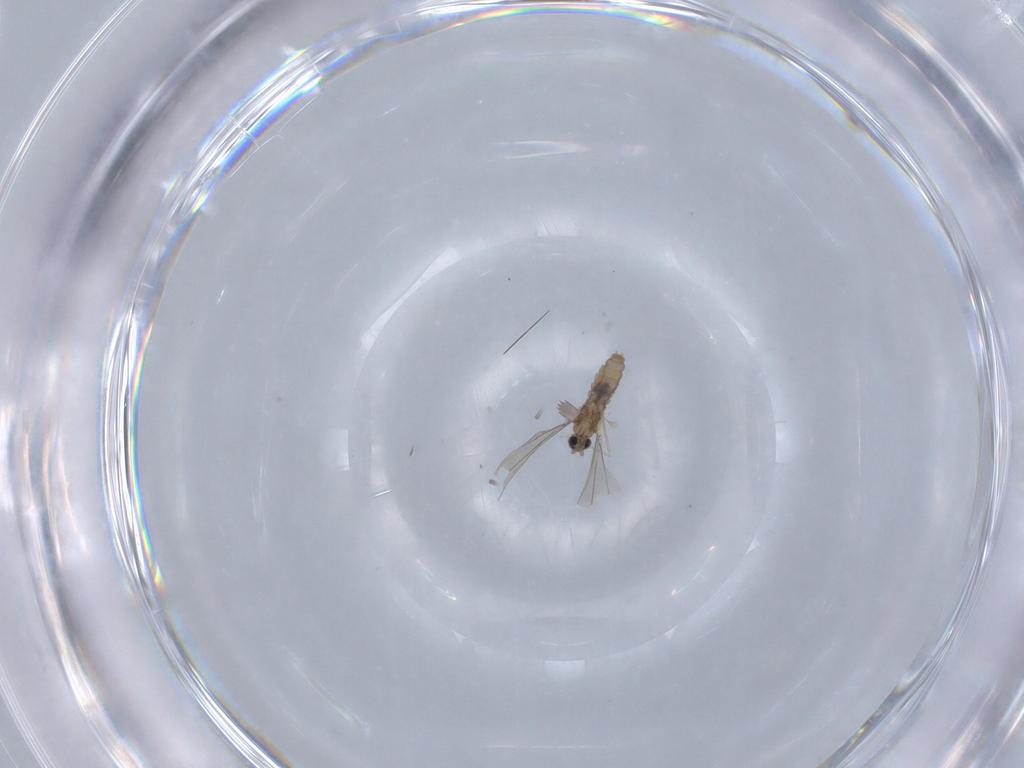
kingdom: Animalia
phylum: Arthropoda
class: Insecta
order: Diptera
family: Cecidomyiidae
